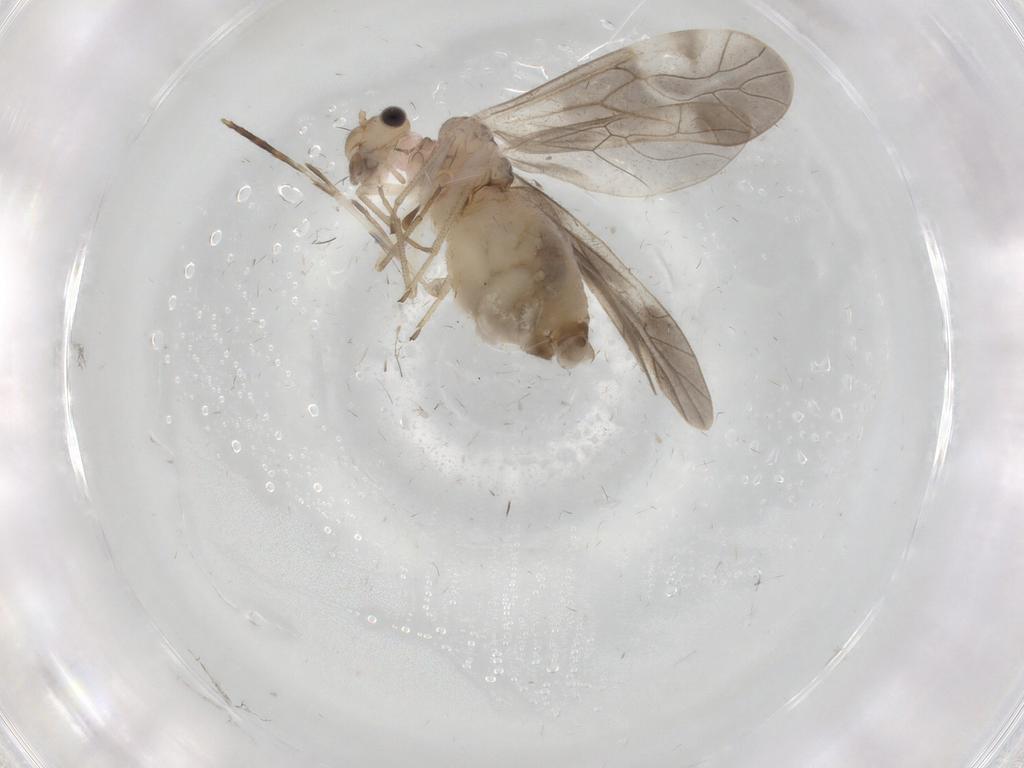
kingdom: Animalia
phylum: Arthropoda
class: Insecta
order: Psocodea
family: Caeciliusidae
